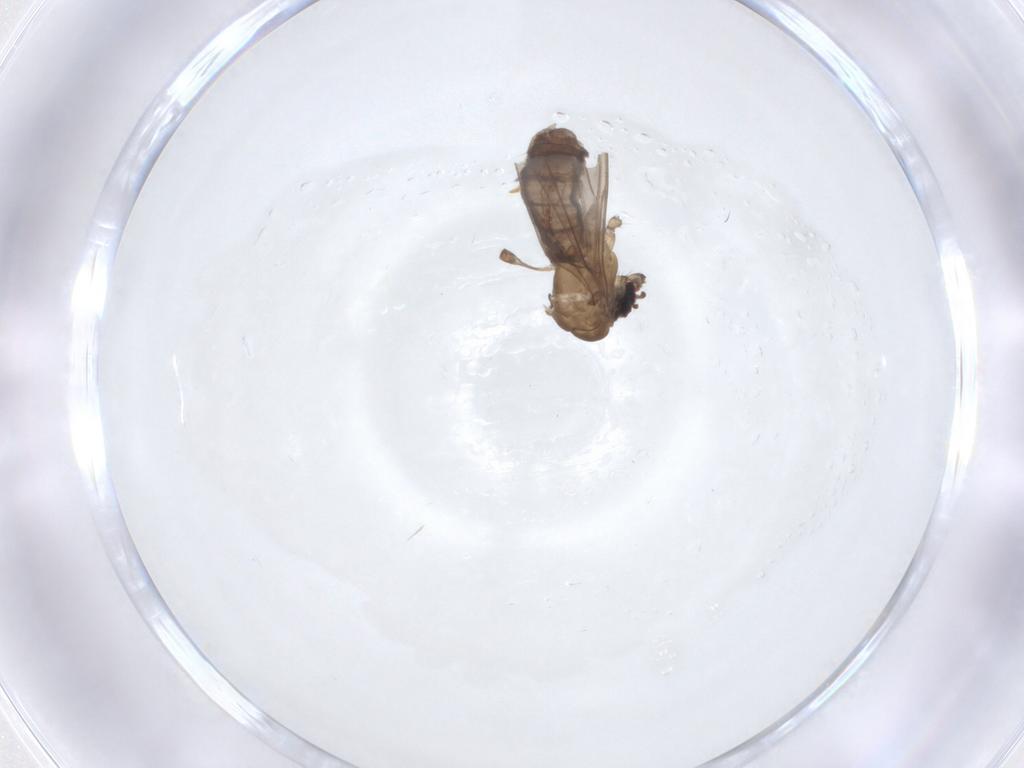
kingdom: Animalia
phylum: Arthropoda
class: Insecta
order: Diptera
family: Limoniidae
